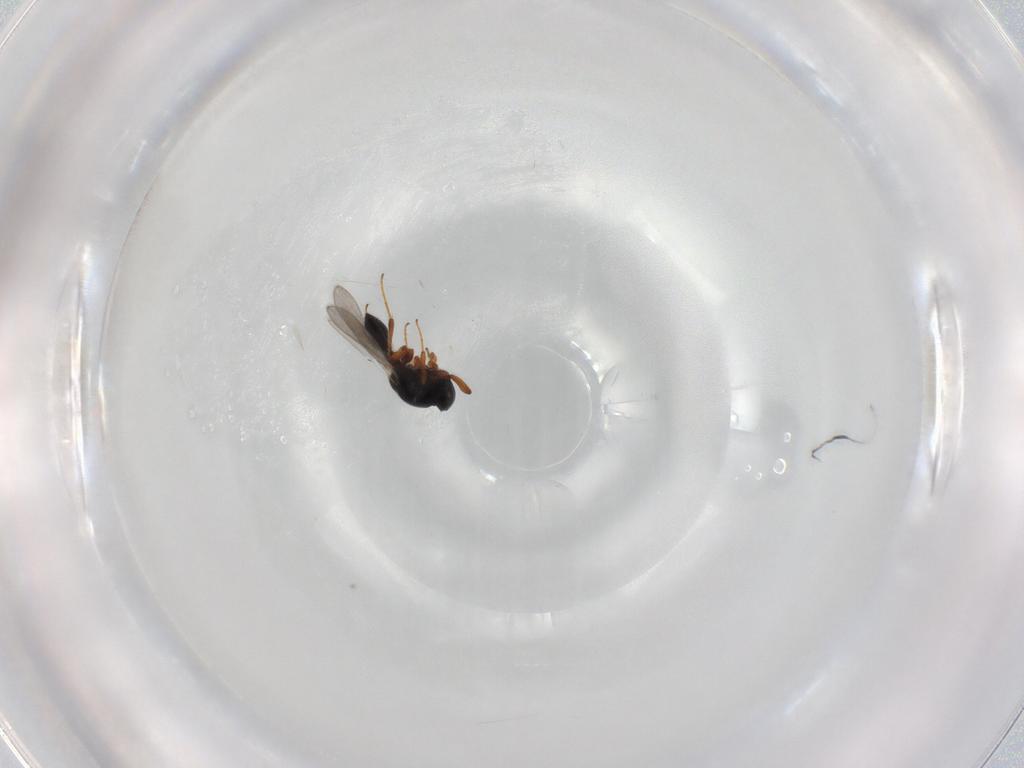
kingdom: Animalia
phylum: Arthropoda
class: Insecta
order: Hymenoptera
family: Platygastridae
